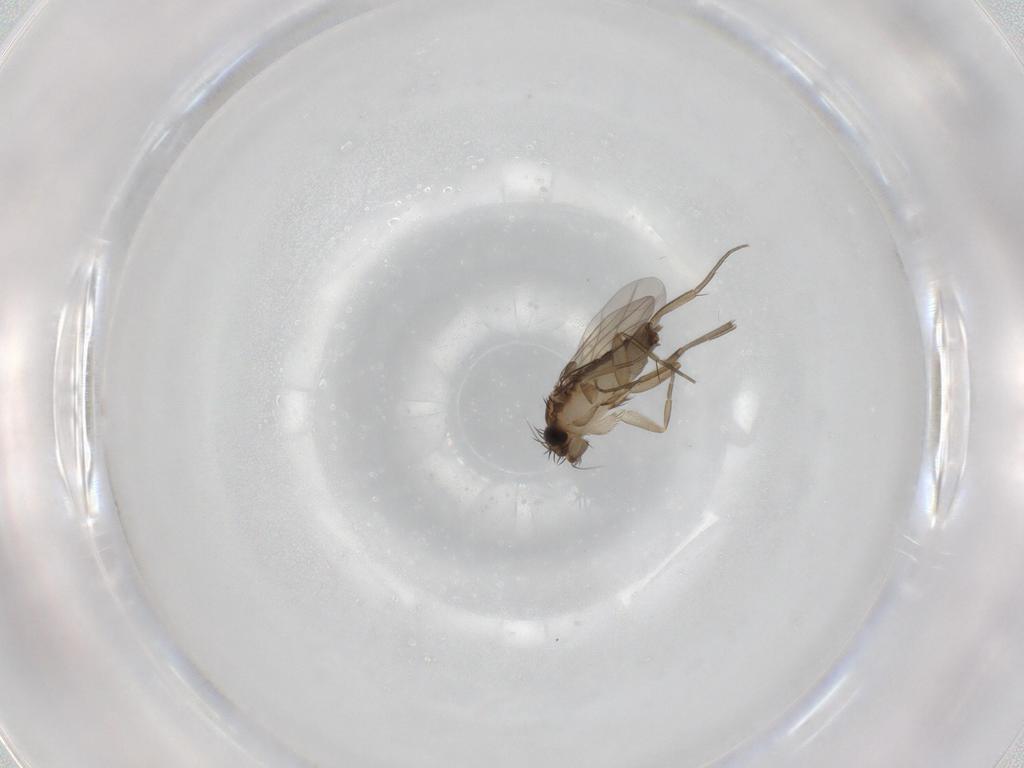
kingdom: Animalia
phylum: Arthropoda
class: Insecta
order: Diptera
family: Phoridae
